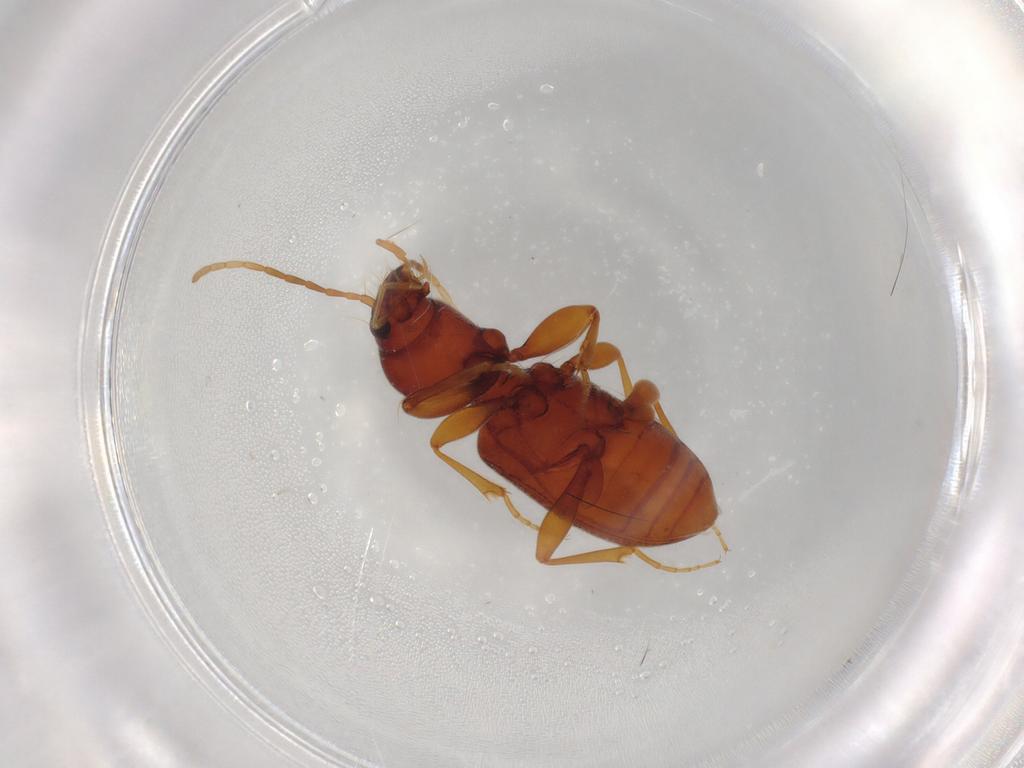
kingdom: Animalia
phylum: Arthropoda
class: Insecta
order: Coleoptera
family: Carabidae
